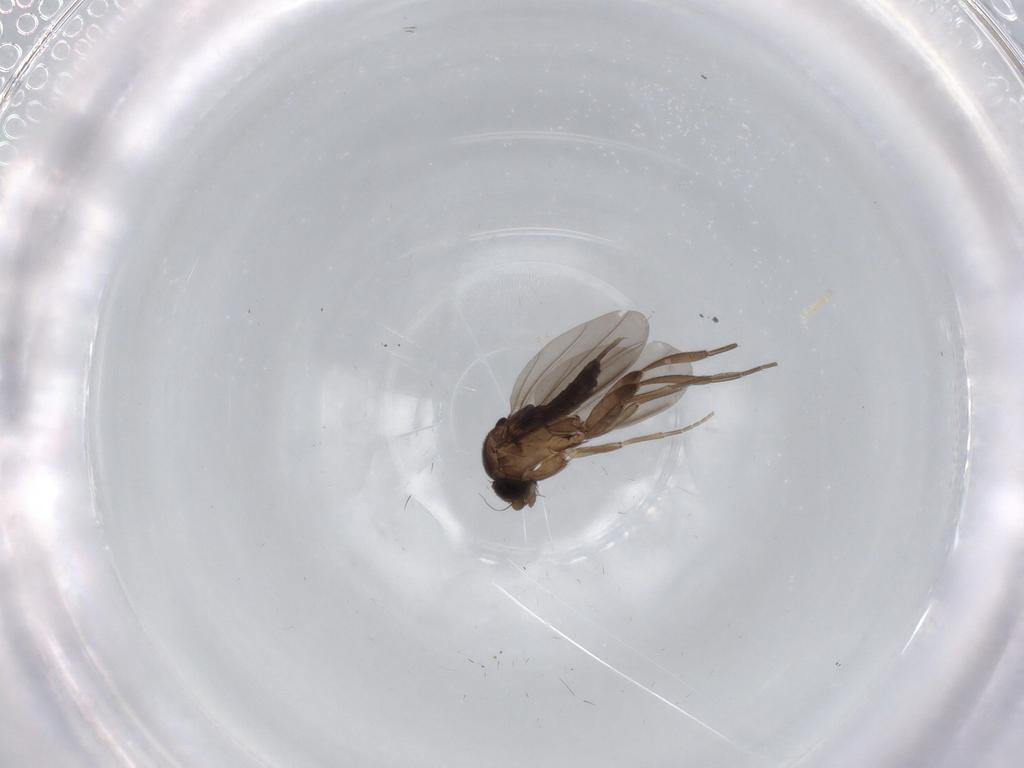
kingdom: Animalia
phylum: Arthropoda
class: Insecta
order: Diptera
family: Phoridae
